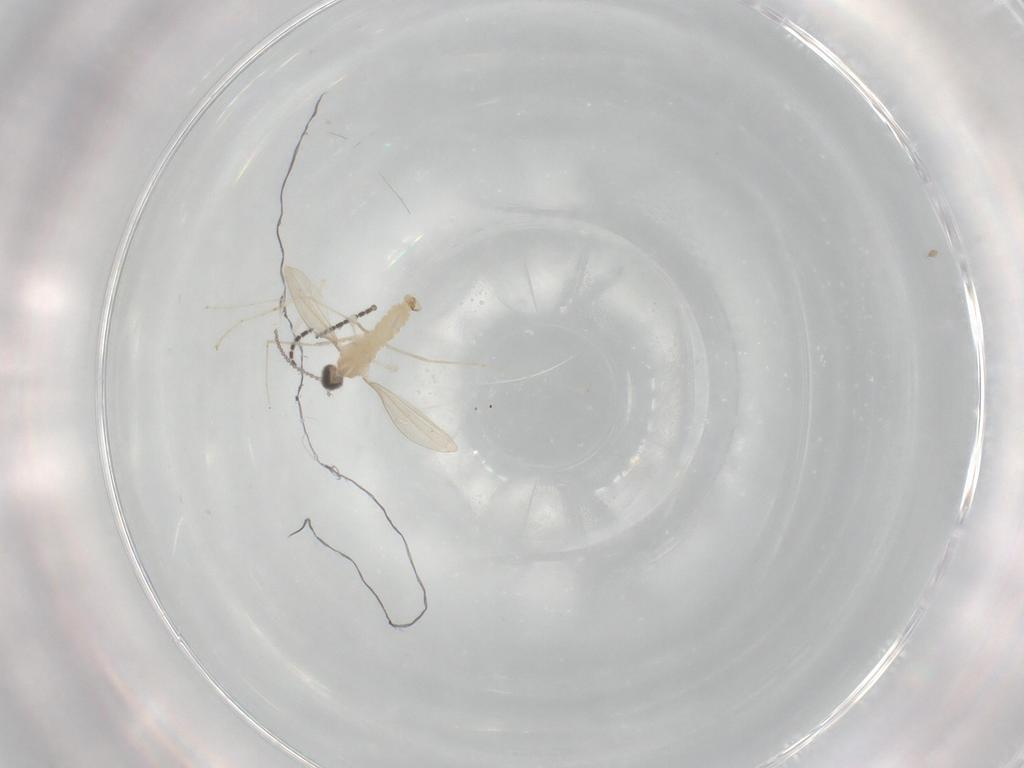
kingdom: Animalia
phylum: Arthropoda
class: Insecta
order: Diptera
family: Cecidomyiidae
